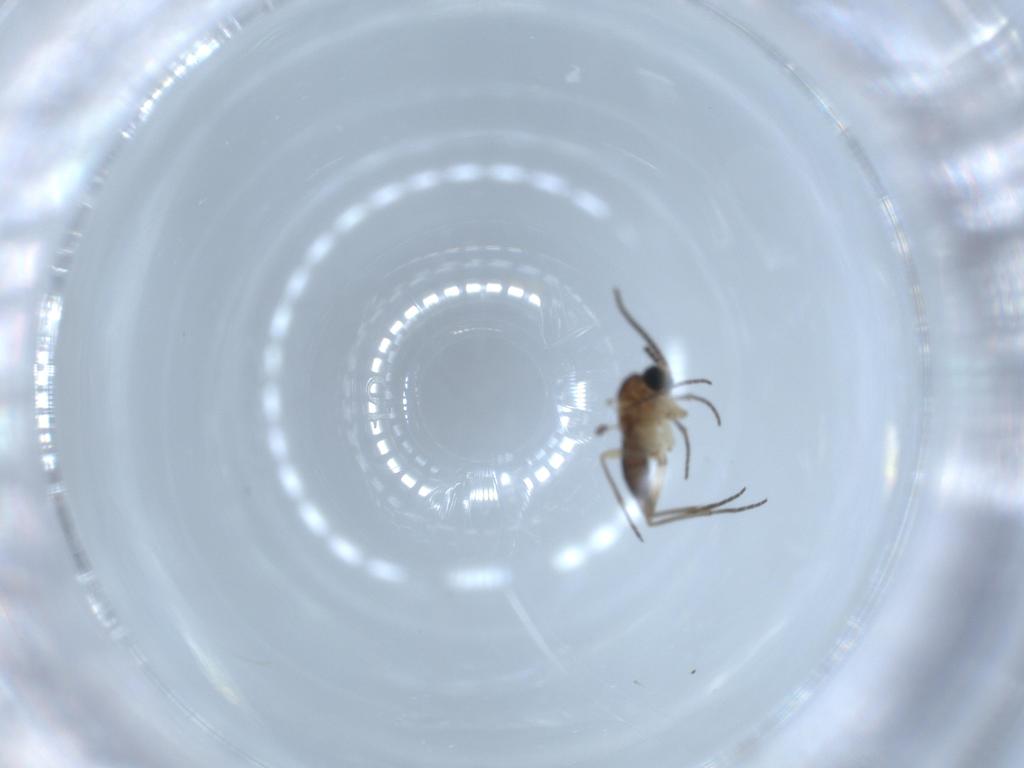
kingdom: Animalia
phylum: Arthropoda
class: Insecta
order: Diptera
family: Sciaridae
